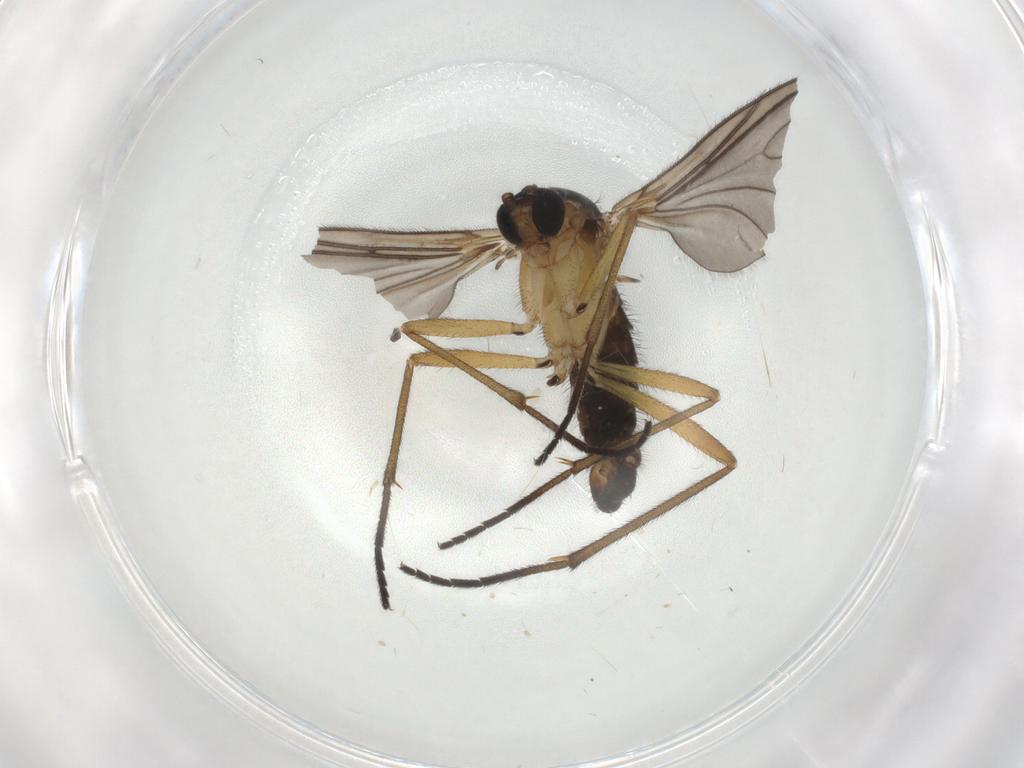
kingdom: Animalia
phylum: Arthropoda
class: Insecta
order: Diptera
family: Sciaridae
